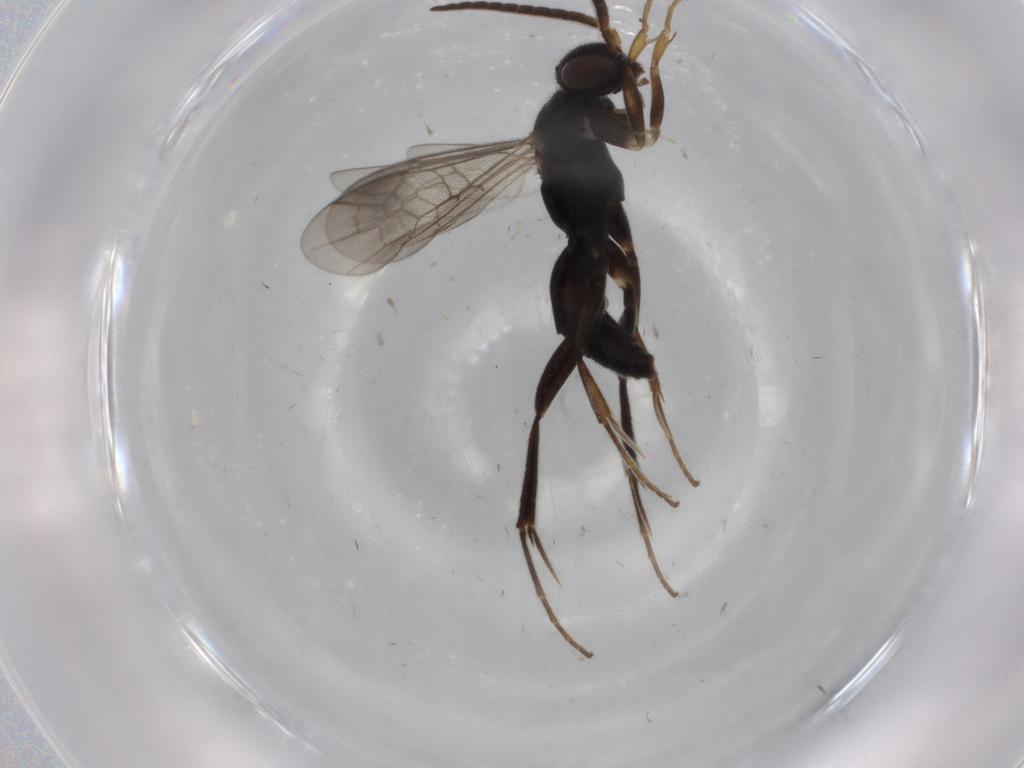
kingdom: Animalia
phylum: Arthropoda
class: Insecta
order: Hymenoptera
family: Pompilidae
